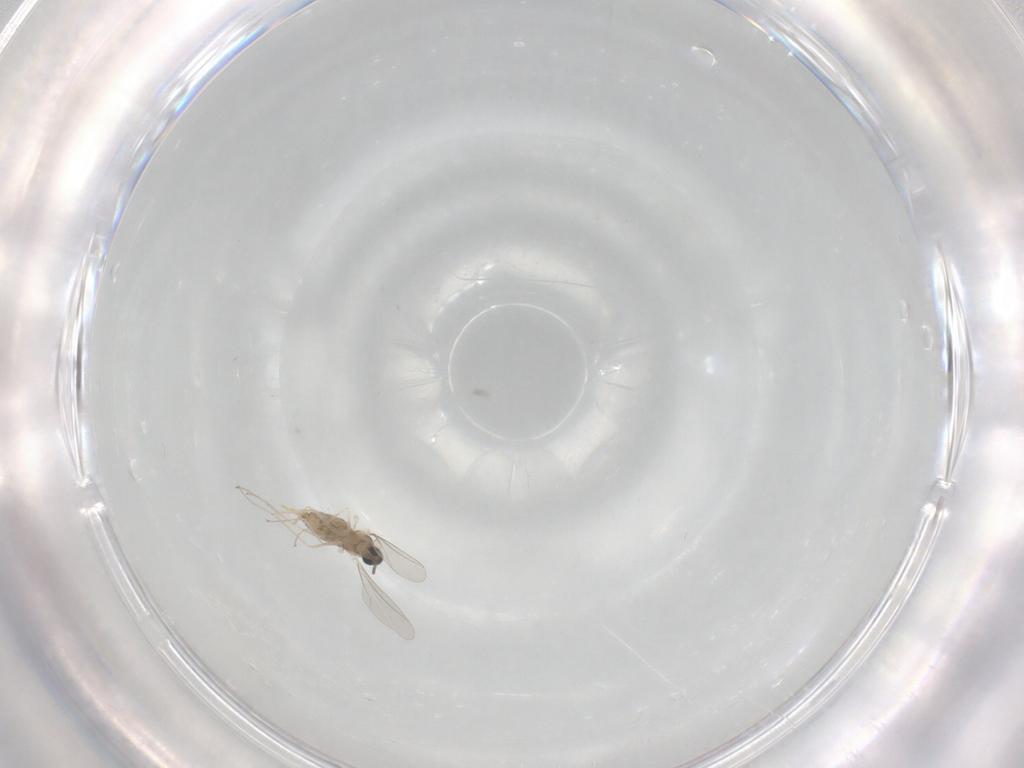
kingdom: Animalia
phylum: Arthropoda
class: Insecta
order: Diptera
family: Cecidomyiidae
